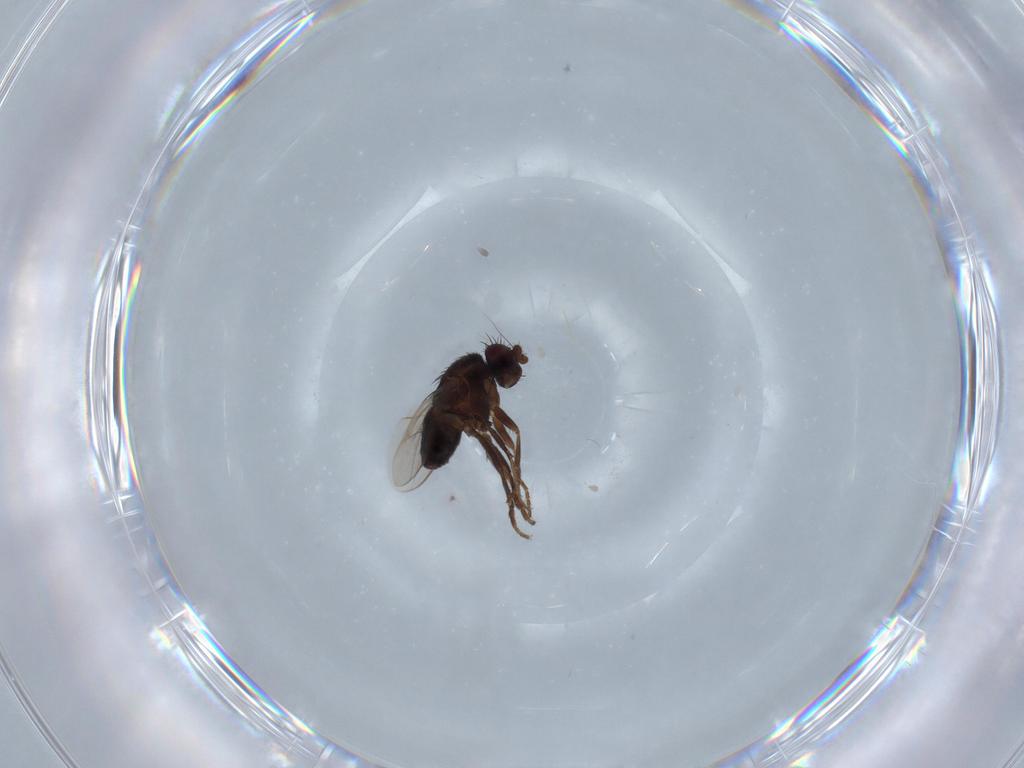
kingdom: Animalia
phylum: Arthropoda
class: Insecta
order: Diptera
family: Sphaeroceridae
